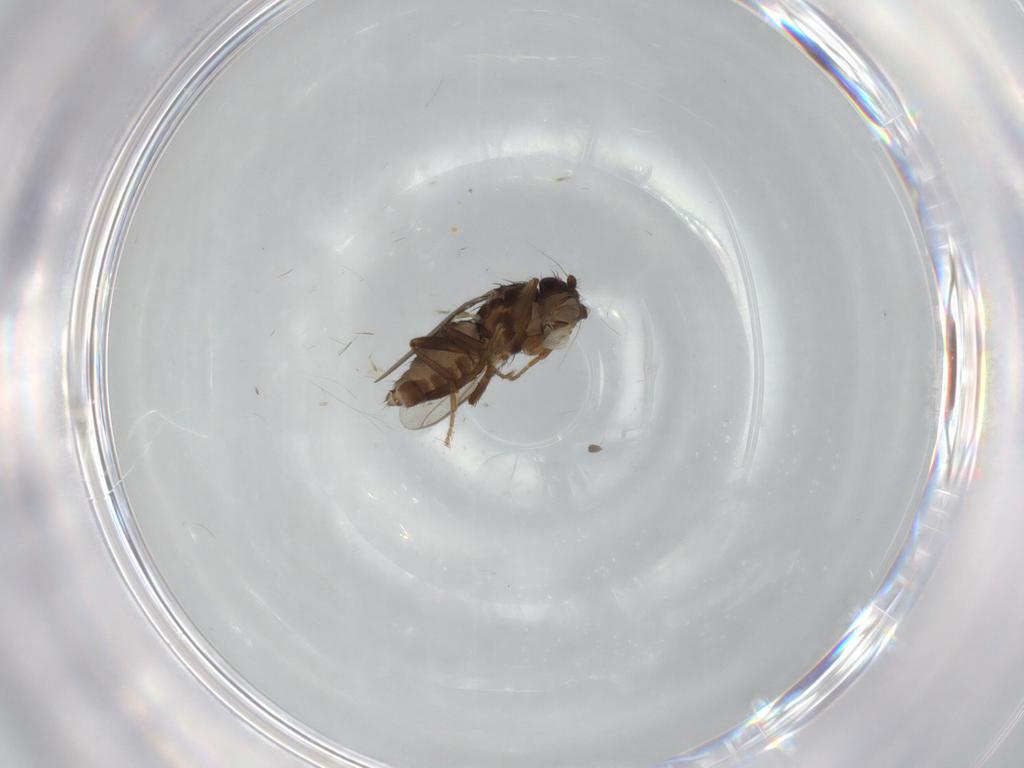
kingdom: Animalia
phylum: Arthropoda
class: Insecta
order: Diptera
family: Sphaeroceridae
